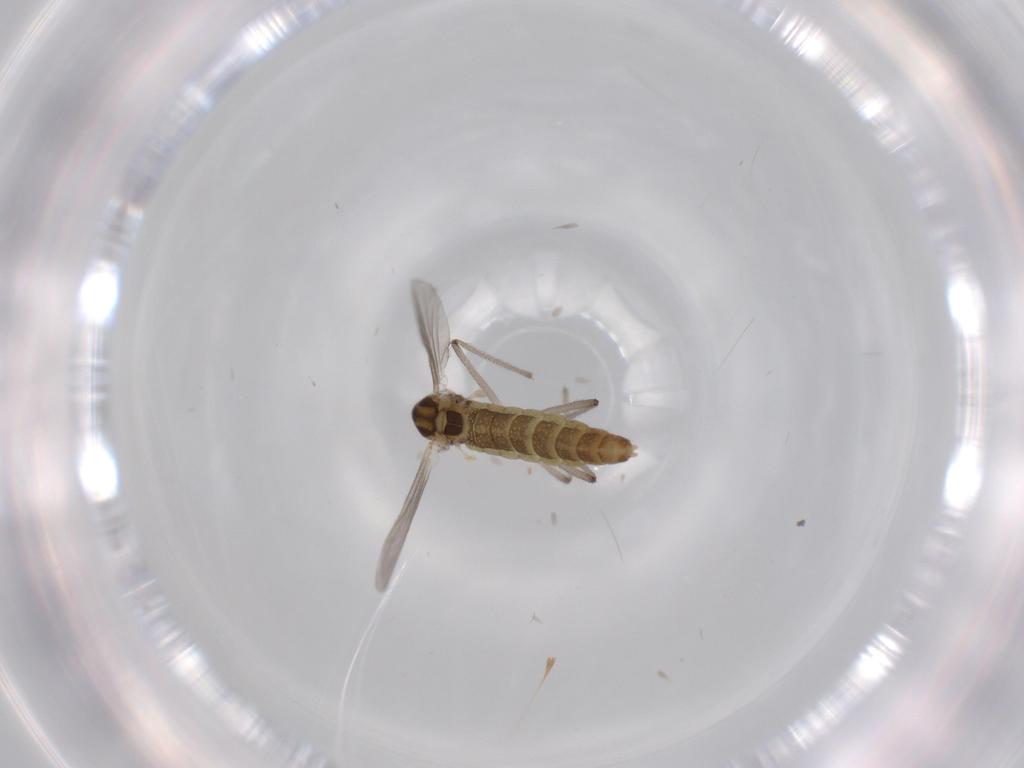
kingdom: Animalia
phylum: Arthropoda
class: Insecta
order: Diptera
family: Chironomidae
